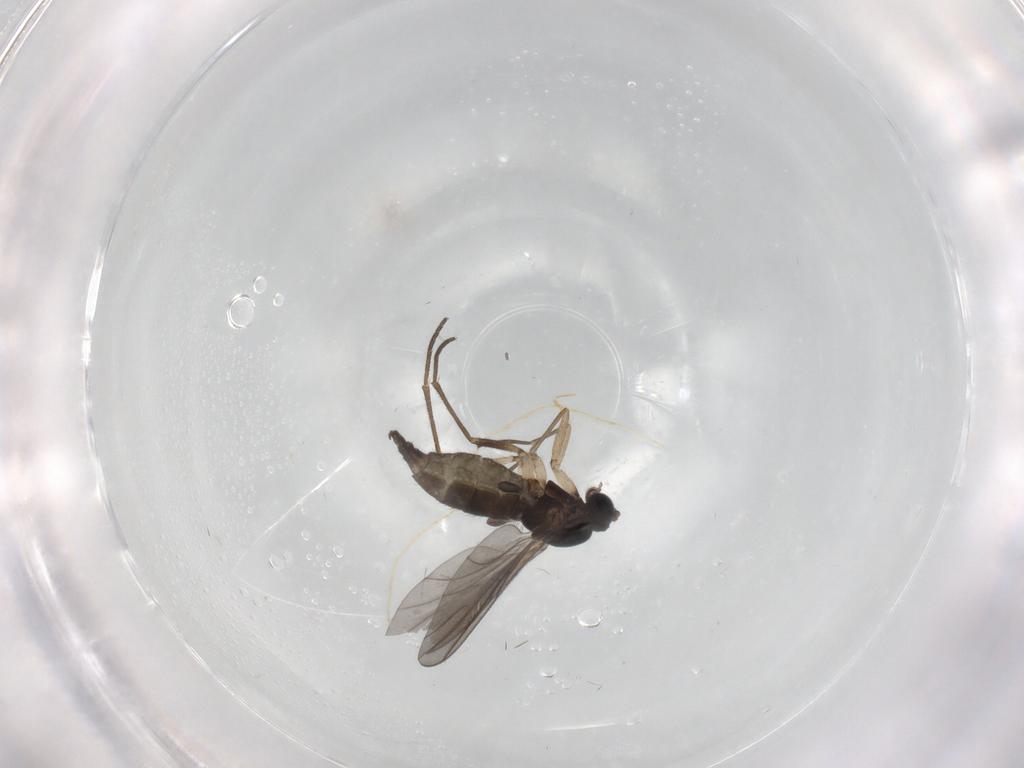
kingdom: Animalia
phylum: Arthropoda
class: Insecta
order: Diptera
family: Sciaridae
